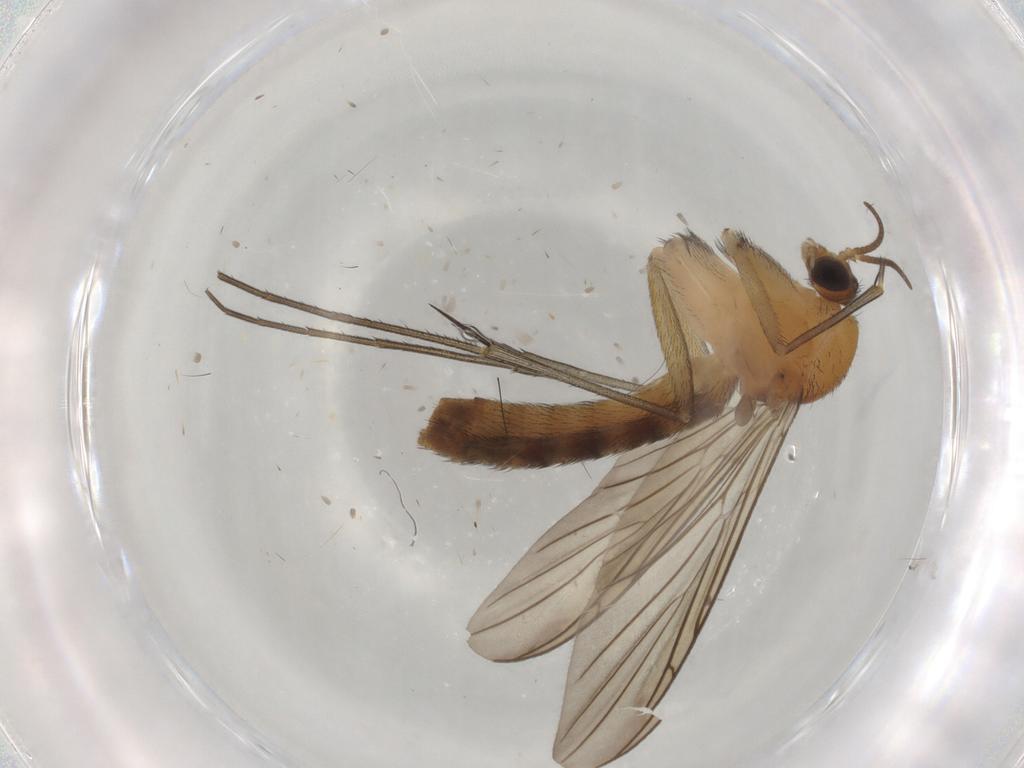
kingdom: Animalia
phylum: Arthropoda
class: Insecta
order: Diptera
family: Keroplatidae
